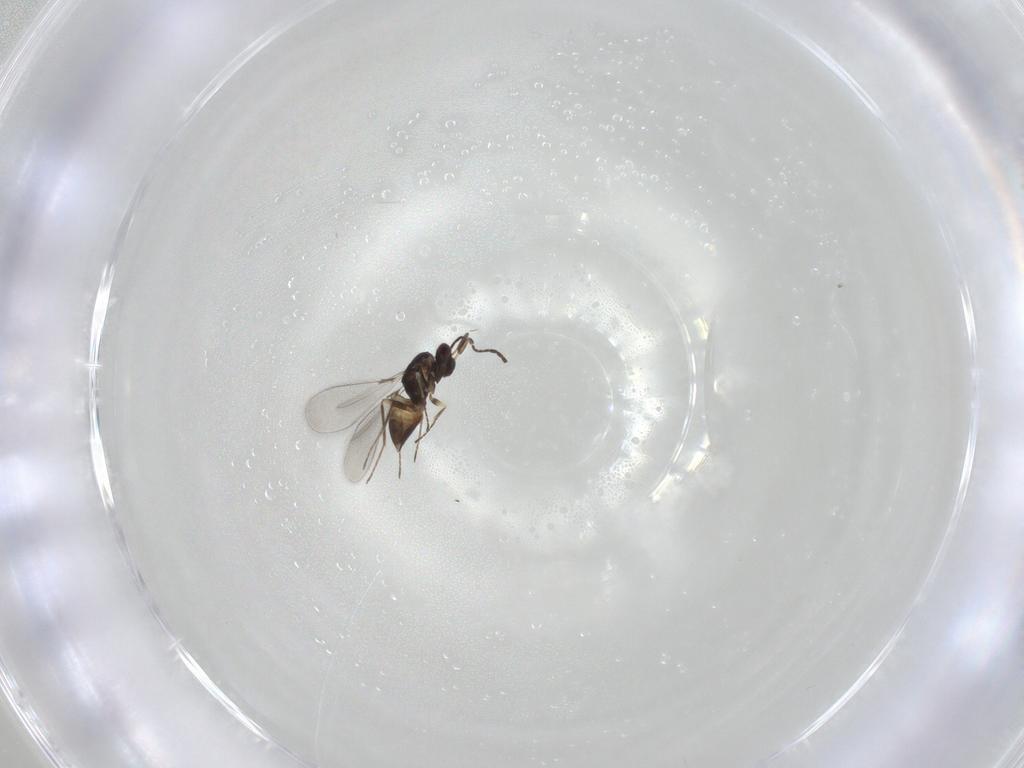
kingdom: Animalia
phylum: Arthropoda
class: Insecta
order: Hymenoptera
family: Mymaridae
